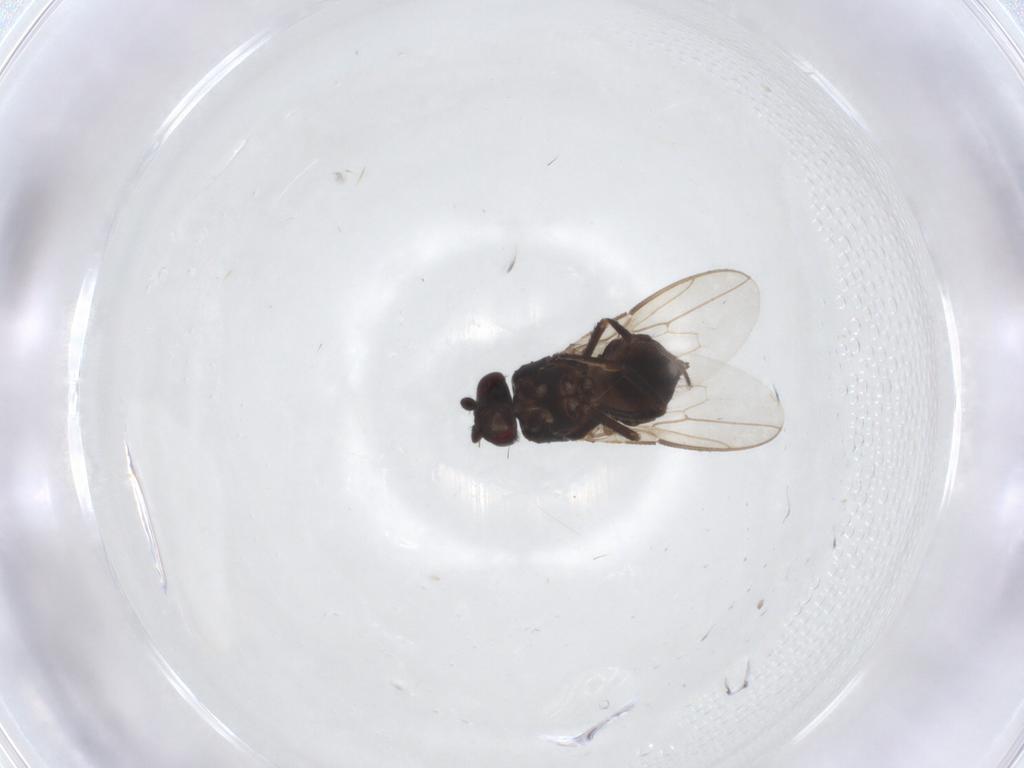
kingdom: Animalia
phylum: Arthropoda
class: Insecta
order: Diptera
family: Sphaeroceridae
